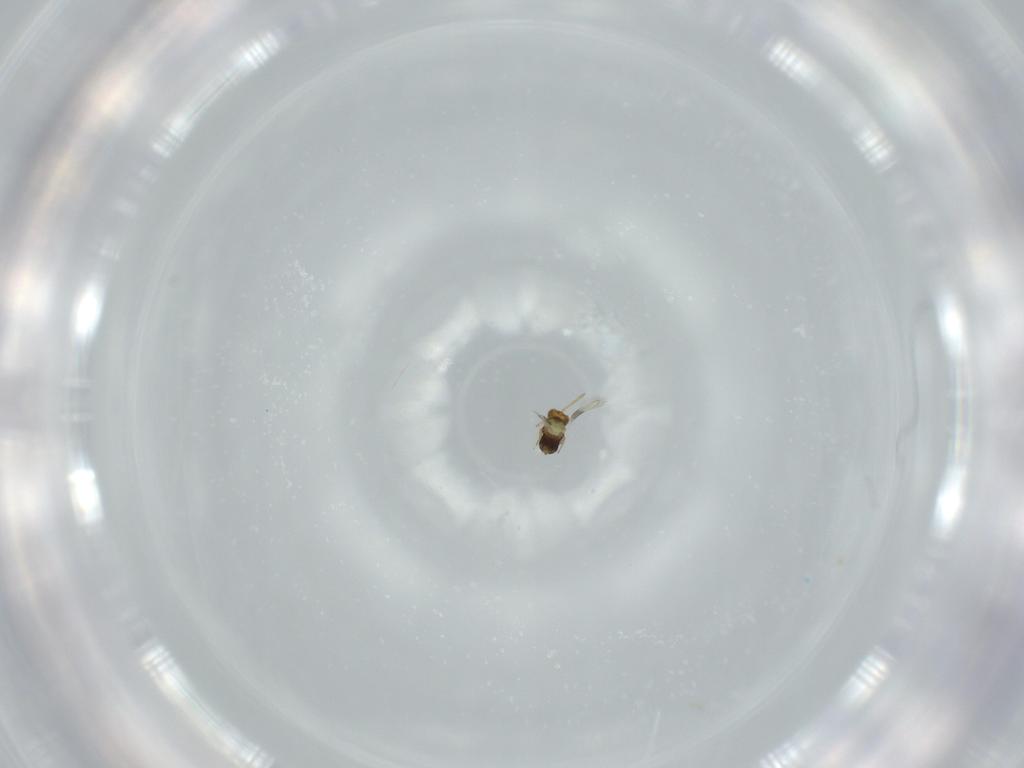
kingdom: Animalia
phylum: Arthropoda
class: Insecta
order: Hymenoptera
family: Aphelinidae
